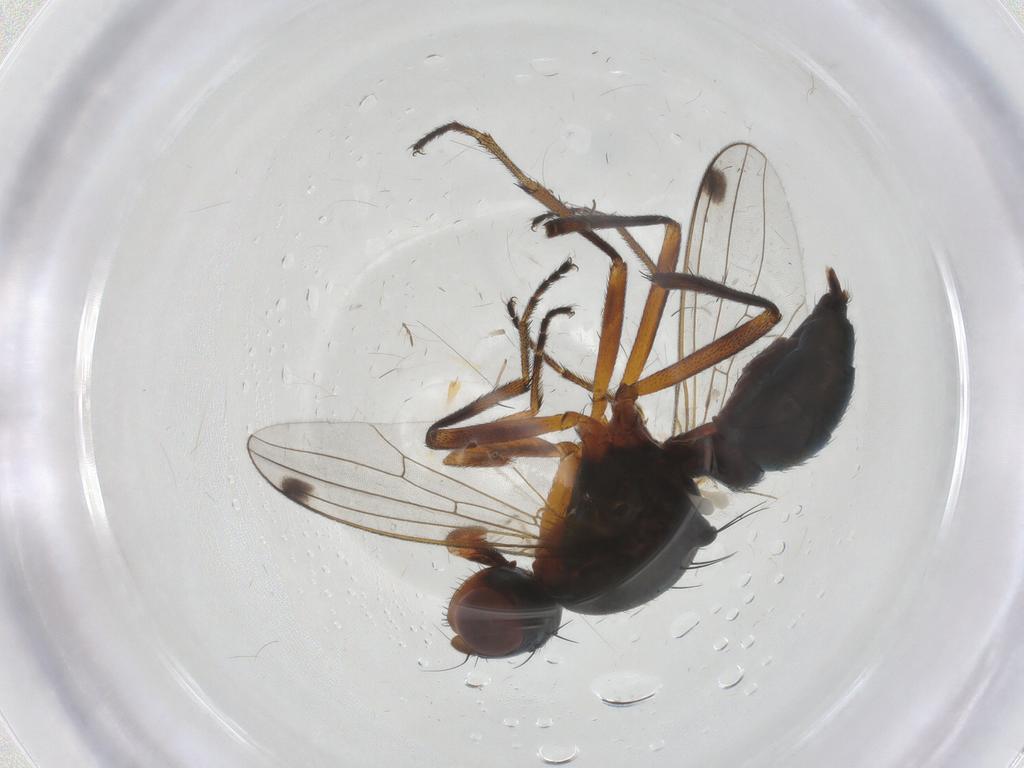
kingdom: Animalia
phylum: Arthropoda
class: Insecta
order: Diptera
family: Sepsidae
